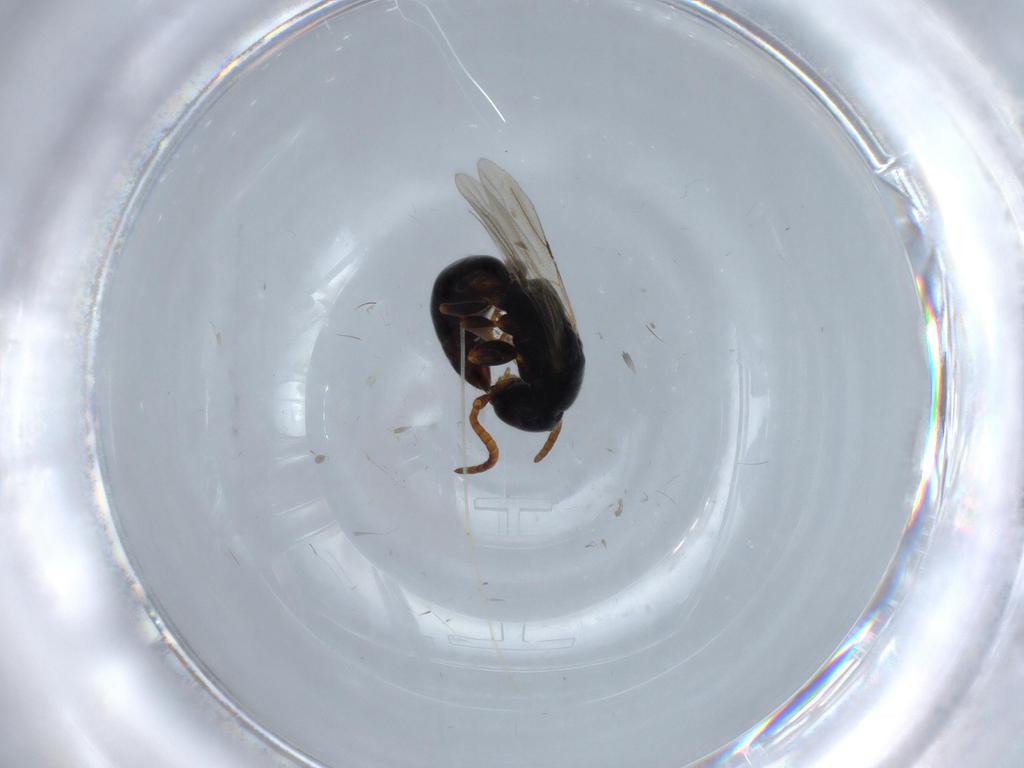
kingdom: Animalia
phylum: Arthropoda
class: Insecta
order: Hymenoptera
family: Bethylidae
